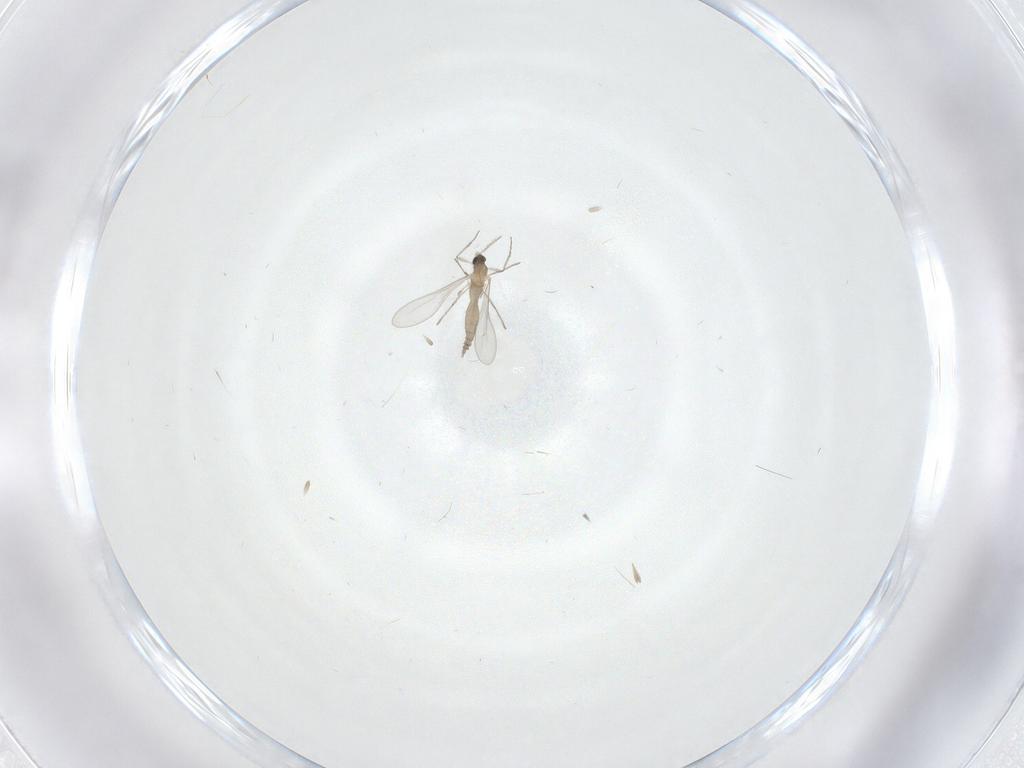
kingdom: Animalia
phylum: Arthropoda
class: Insecta
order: Diptera
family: Cecidomyiidae
